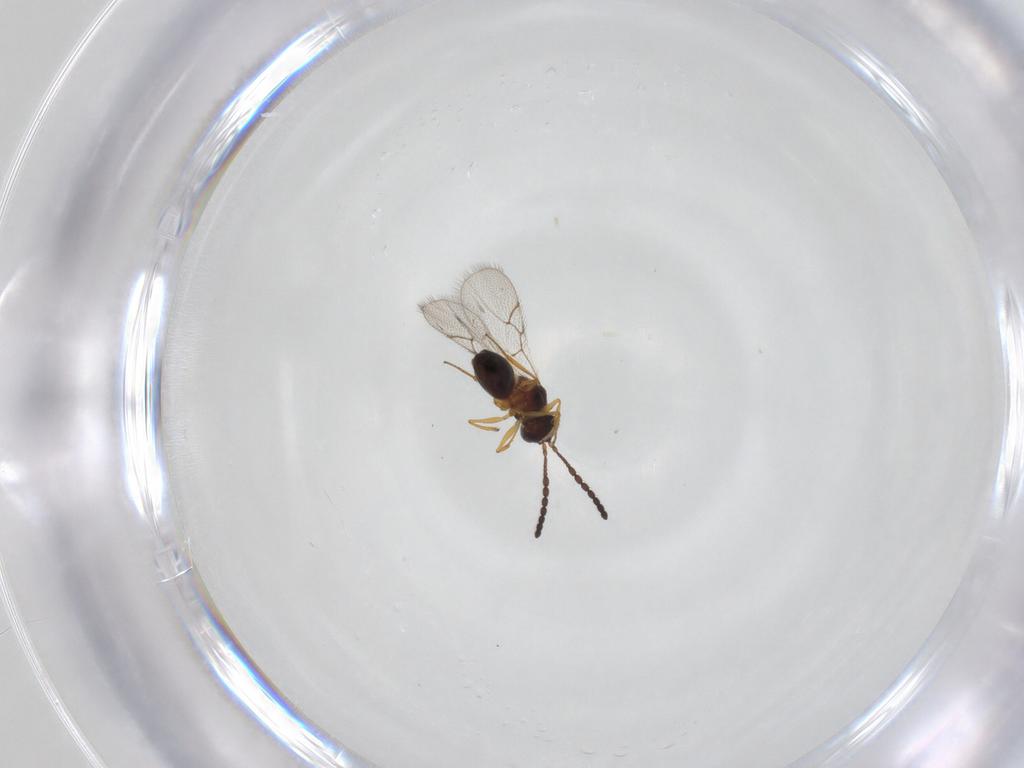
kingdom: Animalia
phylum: Arthropoda
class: Insecta
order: Hymenoptera
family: Figitidae
